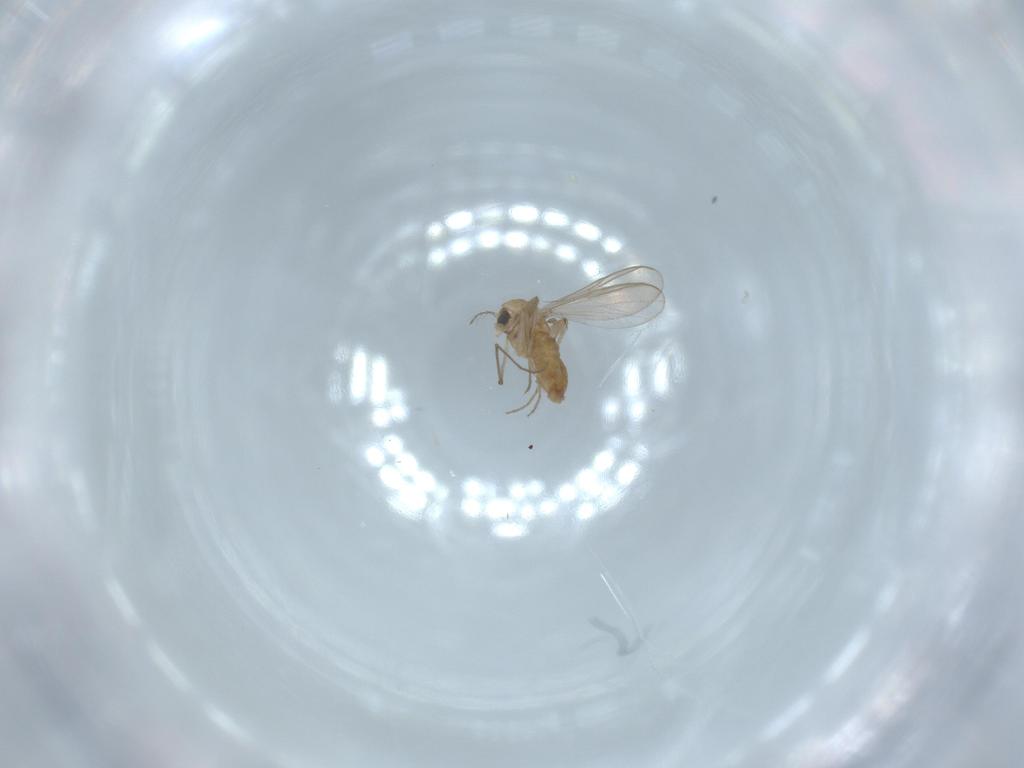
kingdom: Animalia
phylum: Arthropoda
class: Insecta
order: Diptera
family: Chironomidae
